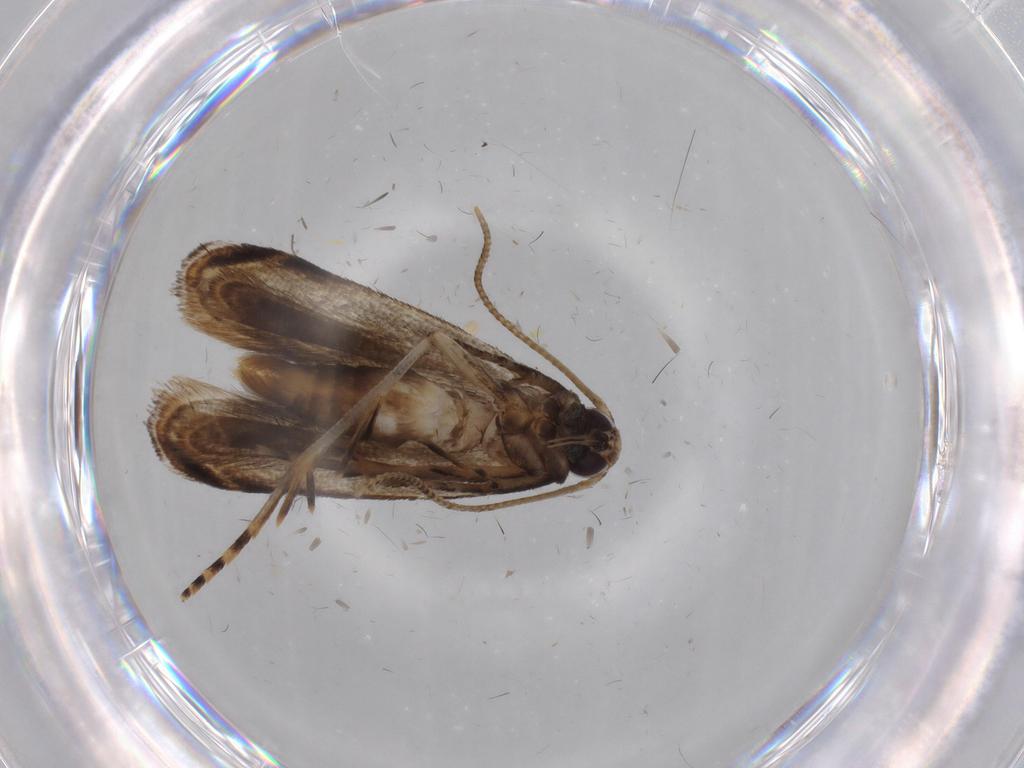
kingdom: Animalia
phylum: Arthropoda
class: Insecta
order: Lepidoptera
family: Gelechiidae
